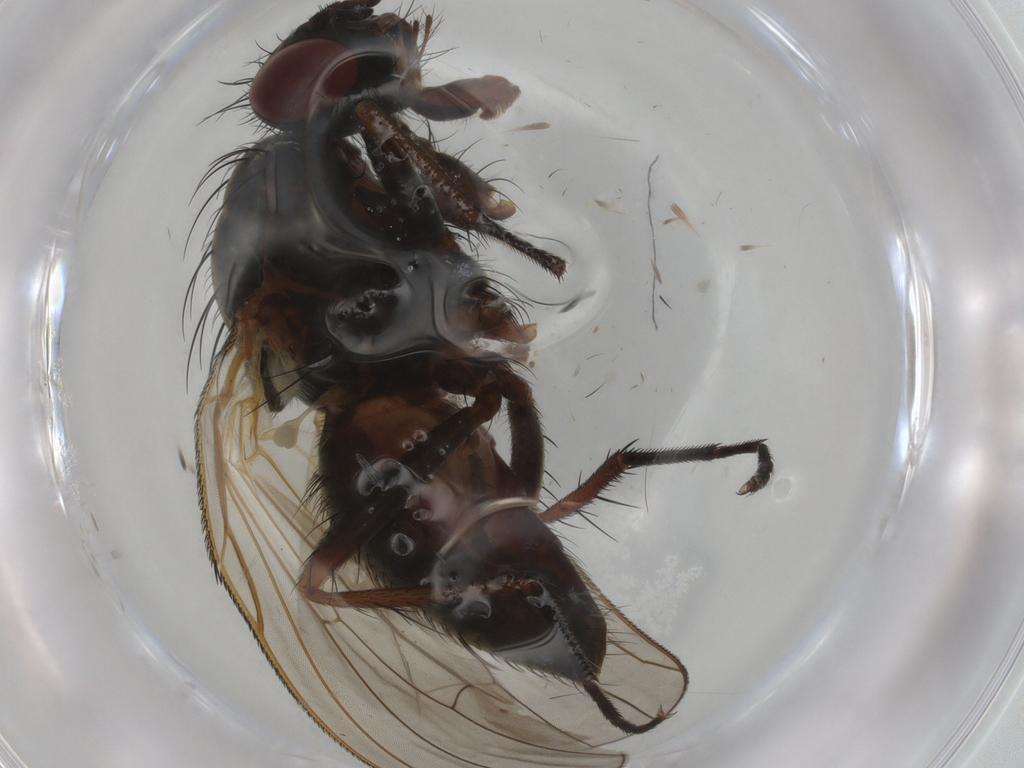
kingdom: Animalia
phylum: Arthropoda
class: Insecta
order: Diptera
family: Anthomyiidae
